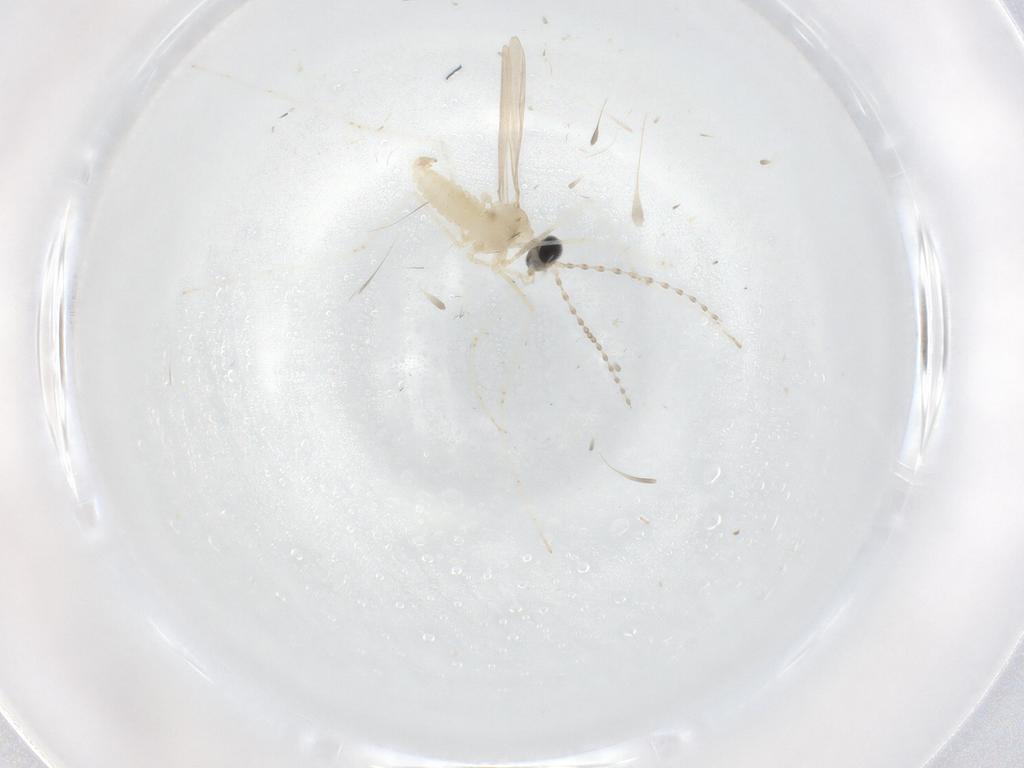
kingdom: Animalia
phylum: Arthropoda
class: Insecta
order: Diptera
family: Cecidomyiidae
